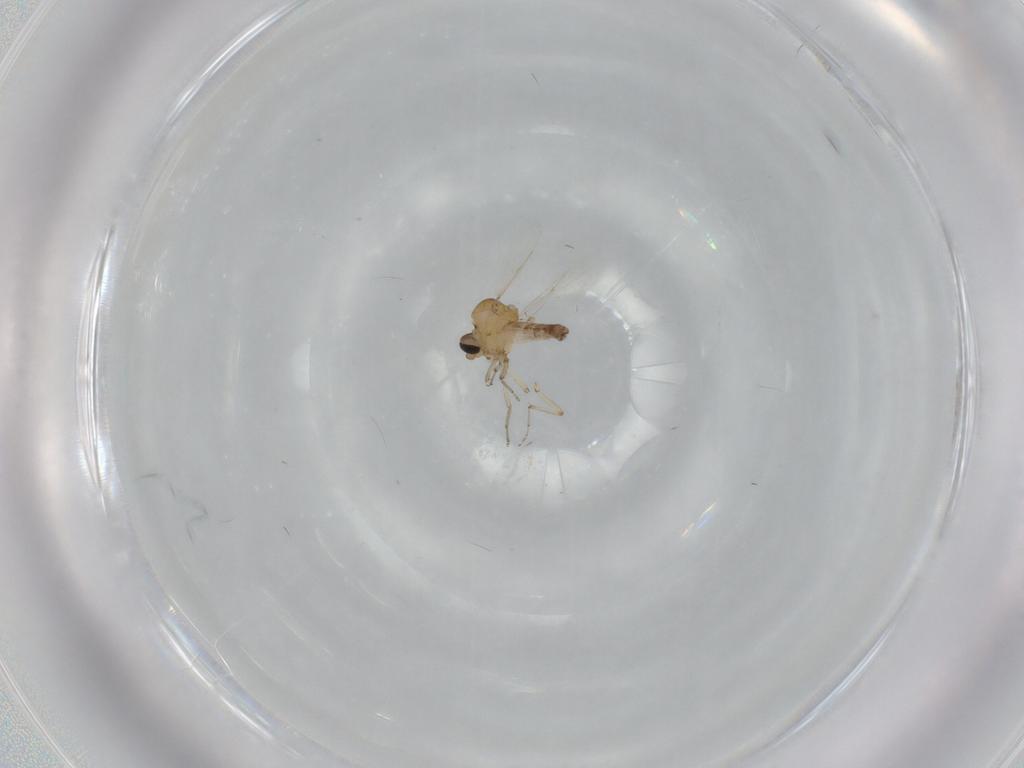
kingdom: Animalia
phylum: Arthropoda
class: Insecta
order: Diptera
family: Ceratopogonidae
